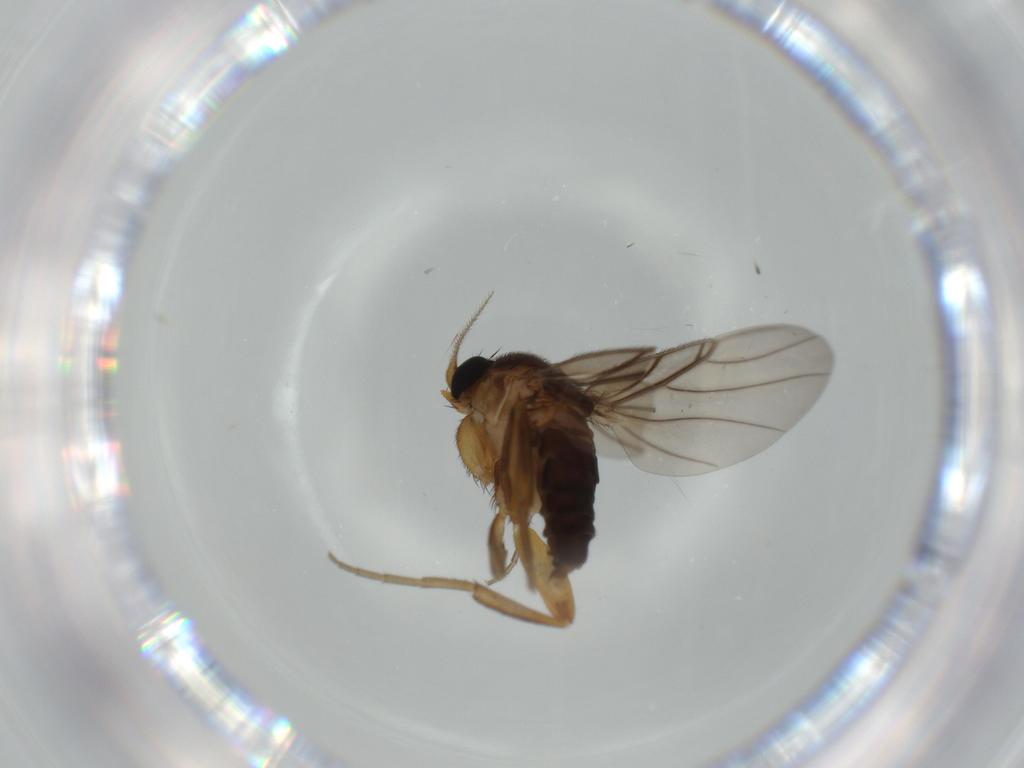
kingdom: Animalia
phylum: Arthropoda
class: Insecta
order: Diptera
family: Phoridae
